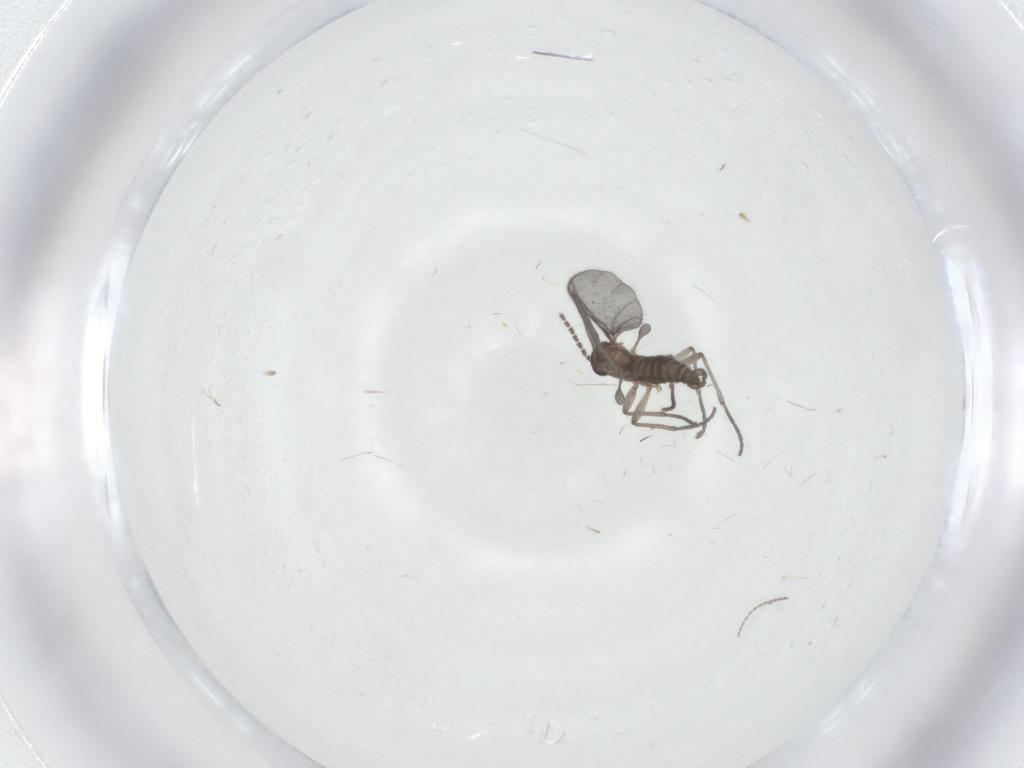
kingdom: Animalia
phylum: Arthropoda
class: Insecta
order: Diptera
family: Sciaridae
